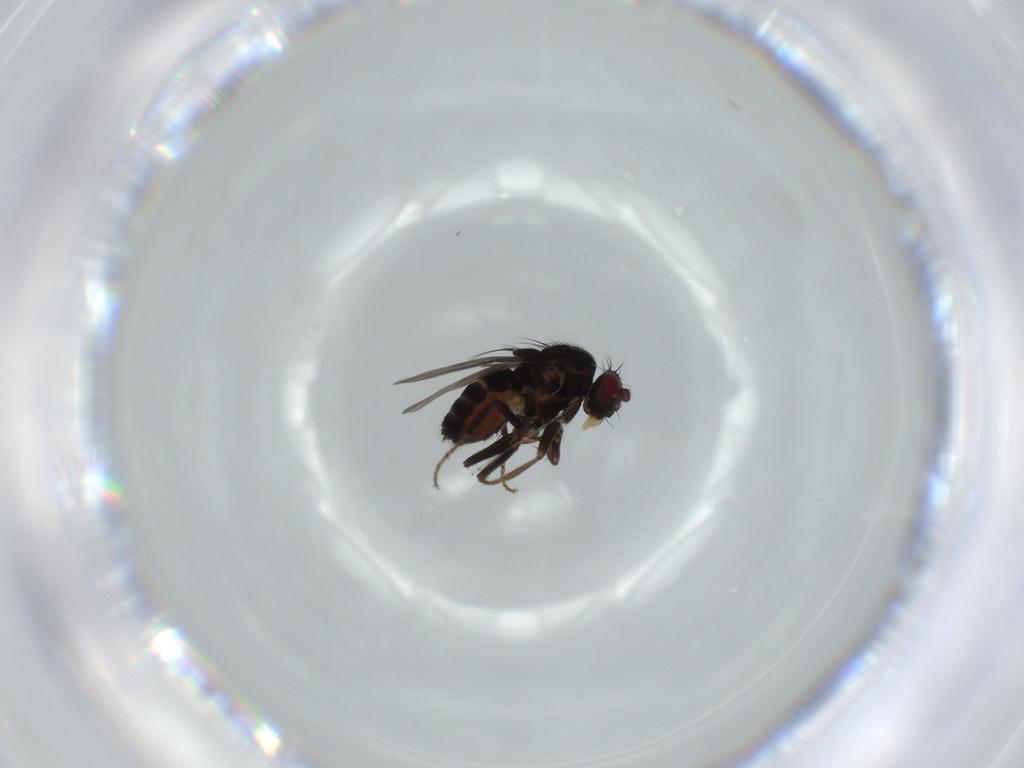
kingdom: Animalia
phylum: Arthropoda
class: Insecta
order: Diptera
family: Sphaeroceridae
